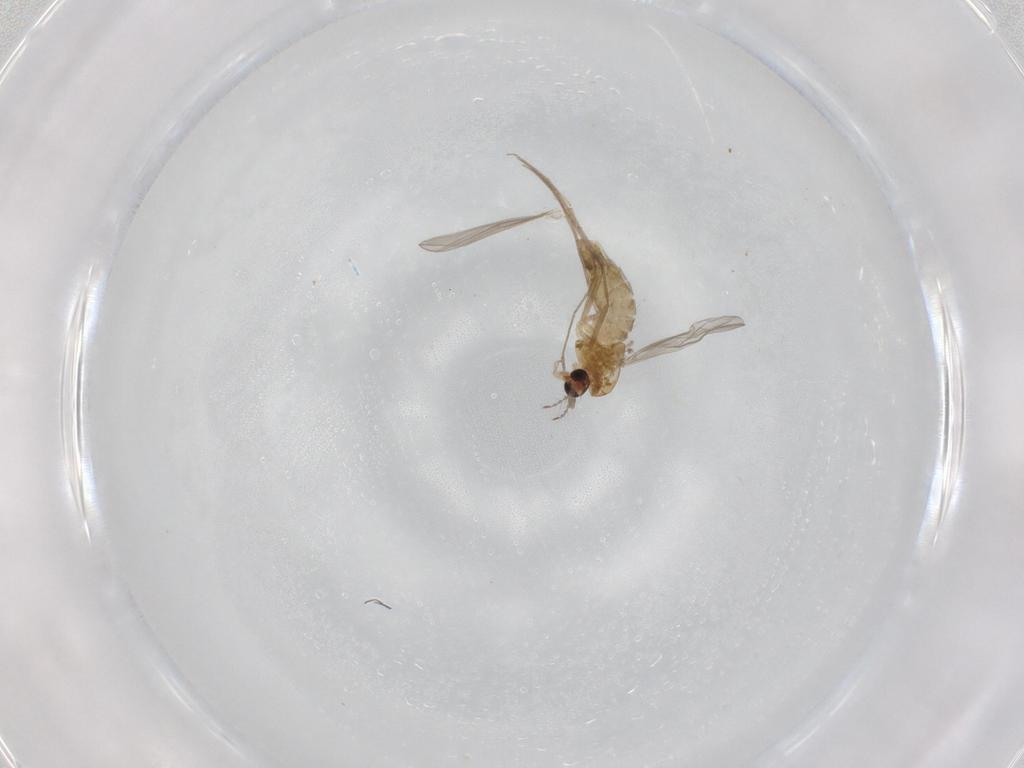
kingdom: Animalia
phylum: Arthropoda
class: Insecta
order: Diptera
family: Chironomidae
